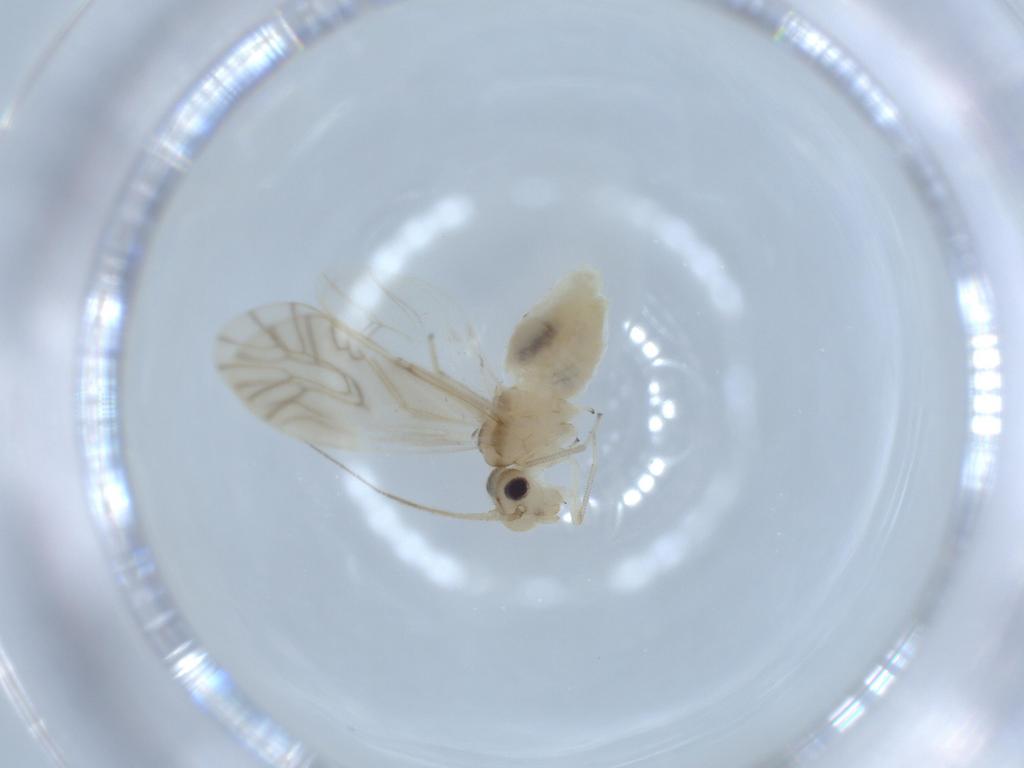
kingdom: Animalia
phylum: Arthropoda
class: Insecta
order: Psocodea
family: Caeciliusidae
